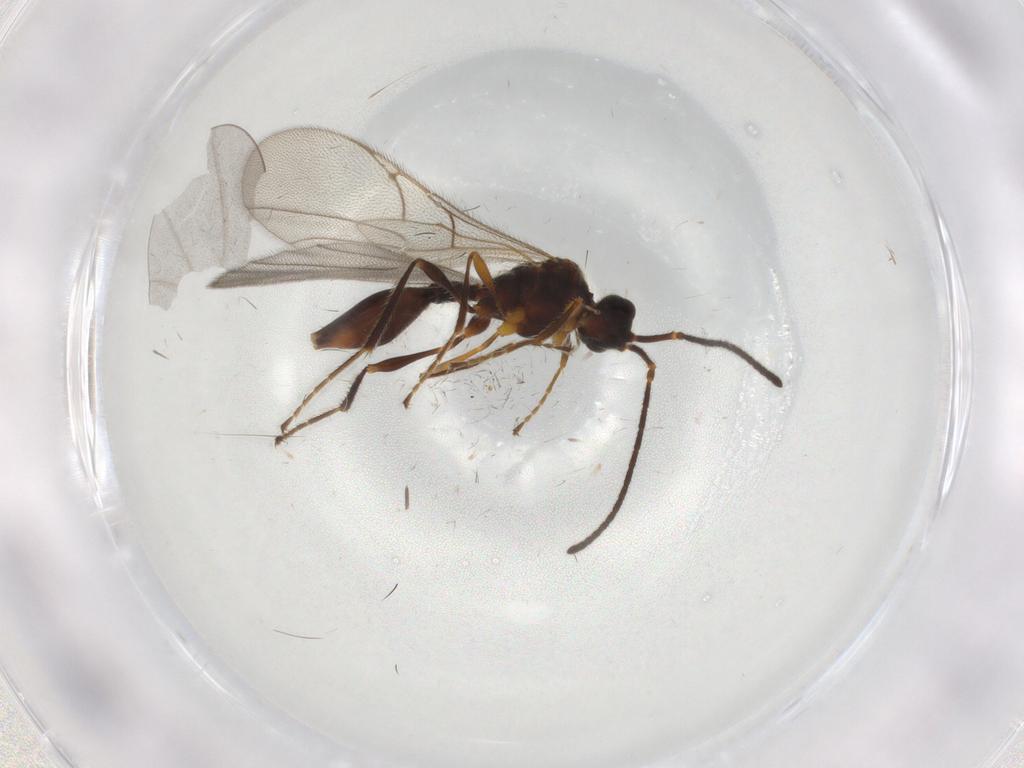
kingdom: Animalia
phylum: Arthropoda
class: Insecta
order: Hymenoptera
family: Diapriidae
